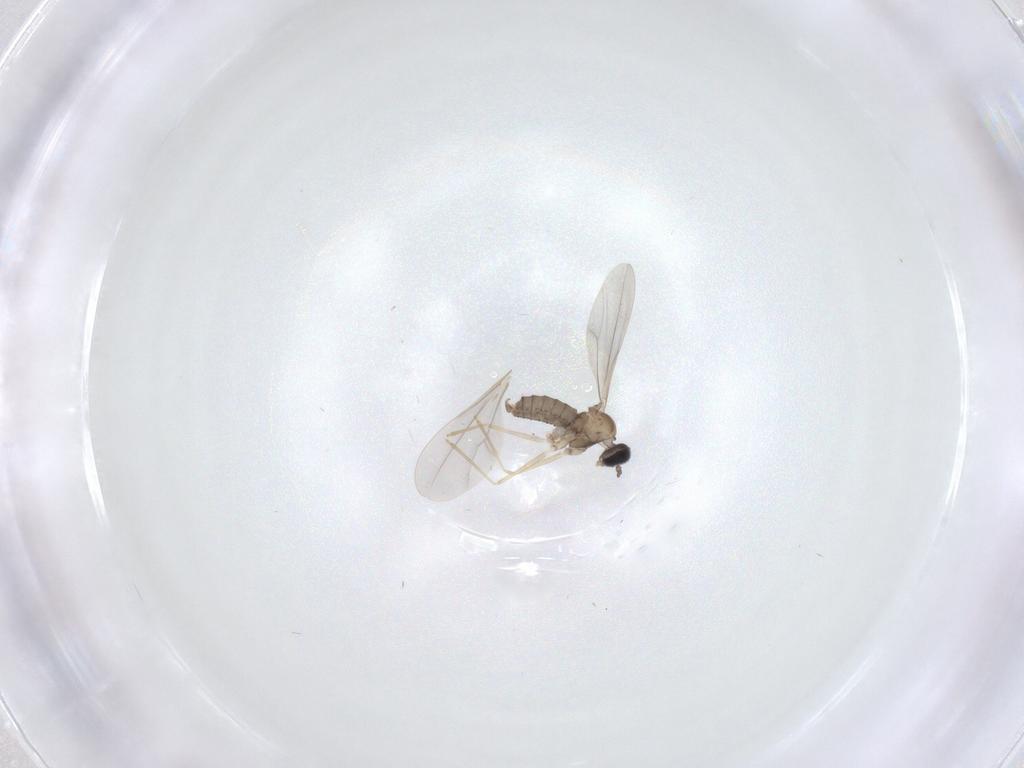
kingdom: Animalia
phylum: Arthropoda
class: Insecta
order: Diptera
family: Cecidomyiidae
